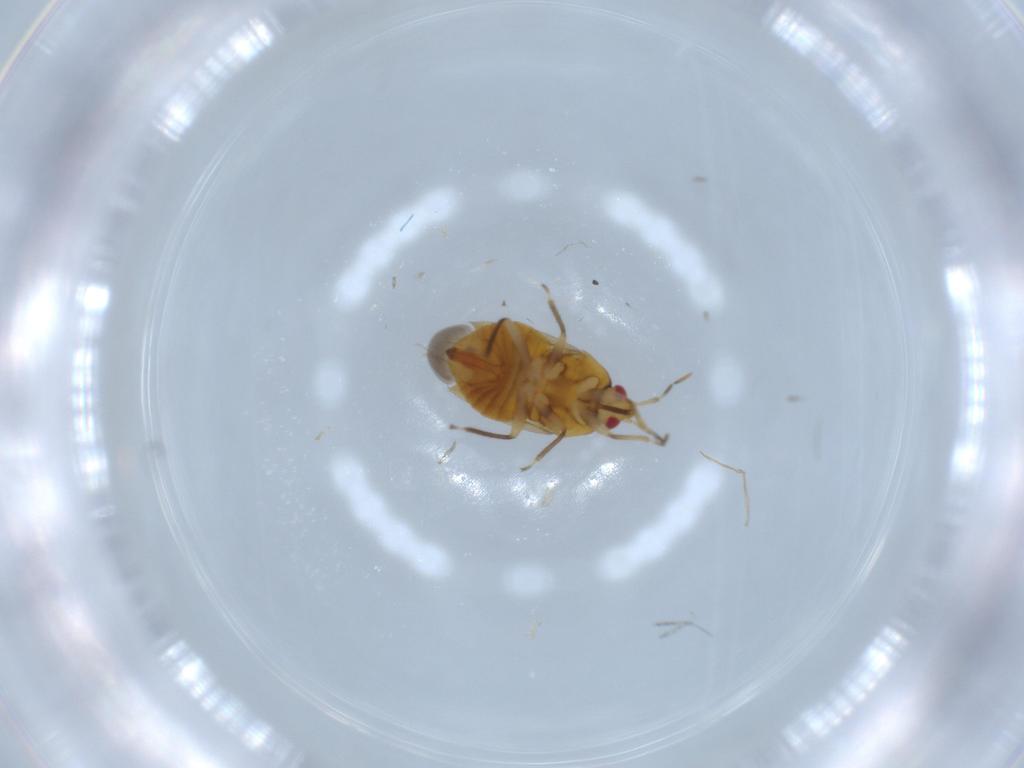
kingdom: Animalia
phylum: Arthropoda
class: Insecta
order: Hemiptera
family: Anthocoridae
